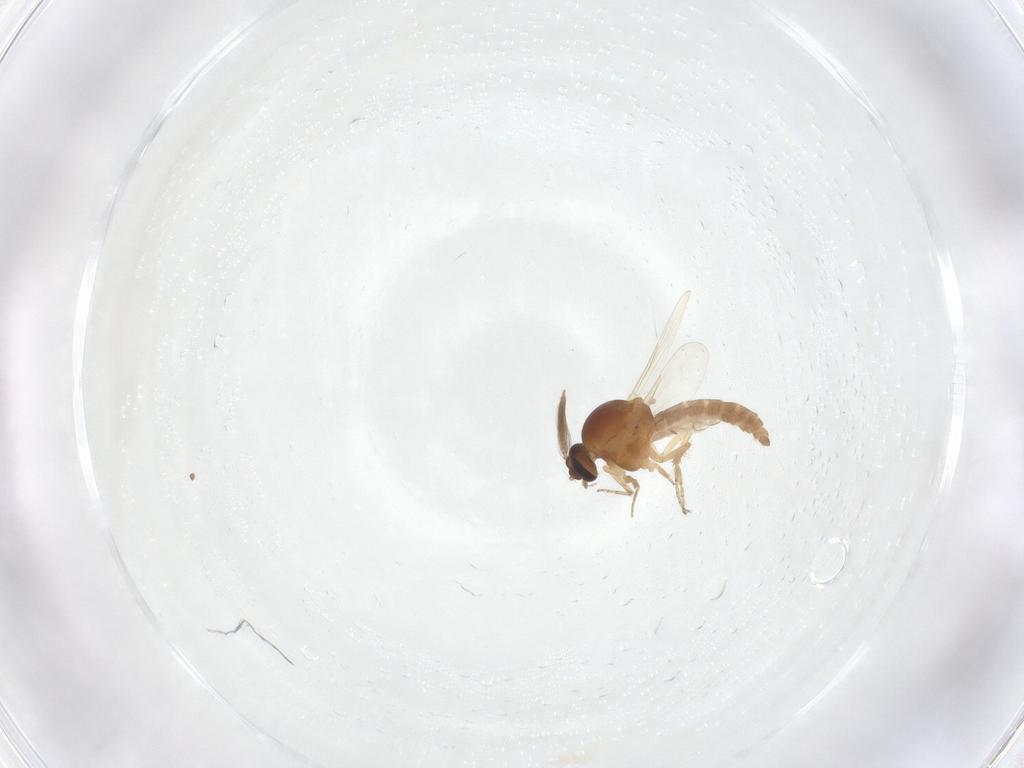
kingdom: Animalia
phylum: Arthropoda
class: Insecta
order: Diptera
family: Ceratopogonidae
